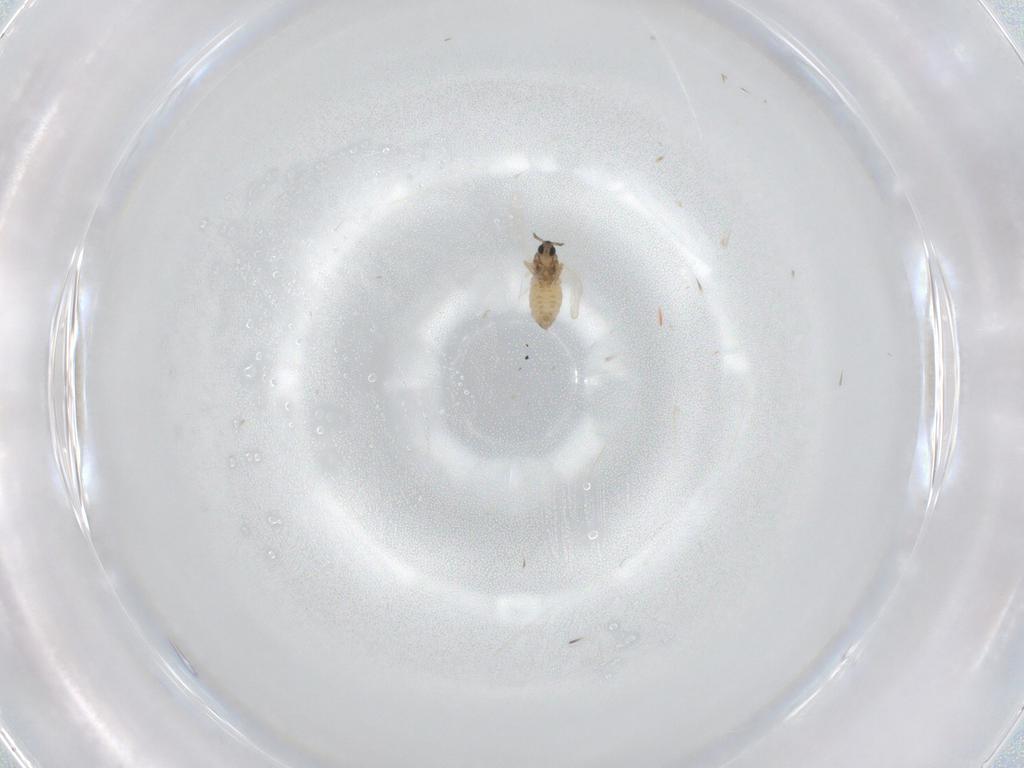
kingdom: Animalia
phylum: Arthropoda
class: Insecta
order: Diptera
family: Cecidomyiidae
